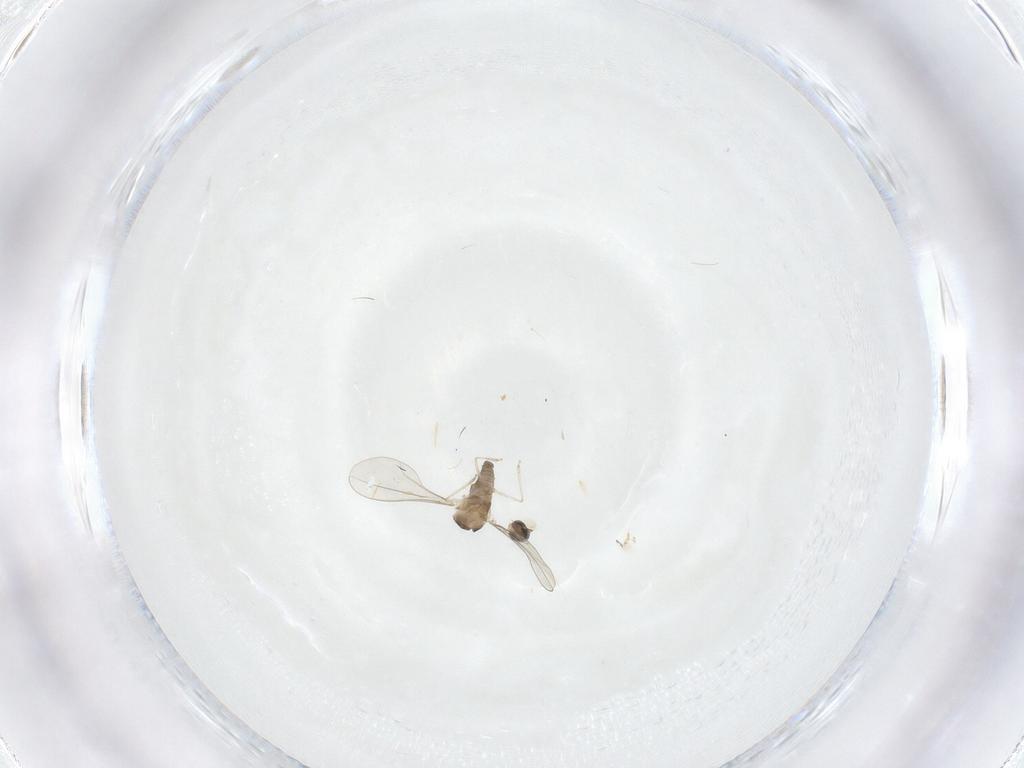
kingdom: Animalia
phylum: Arthropoda
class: Insecta
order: Diptera
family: Cecidomyiidae
